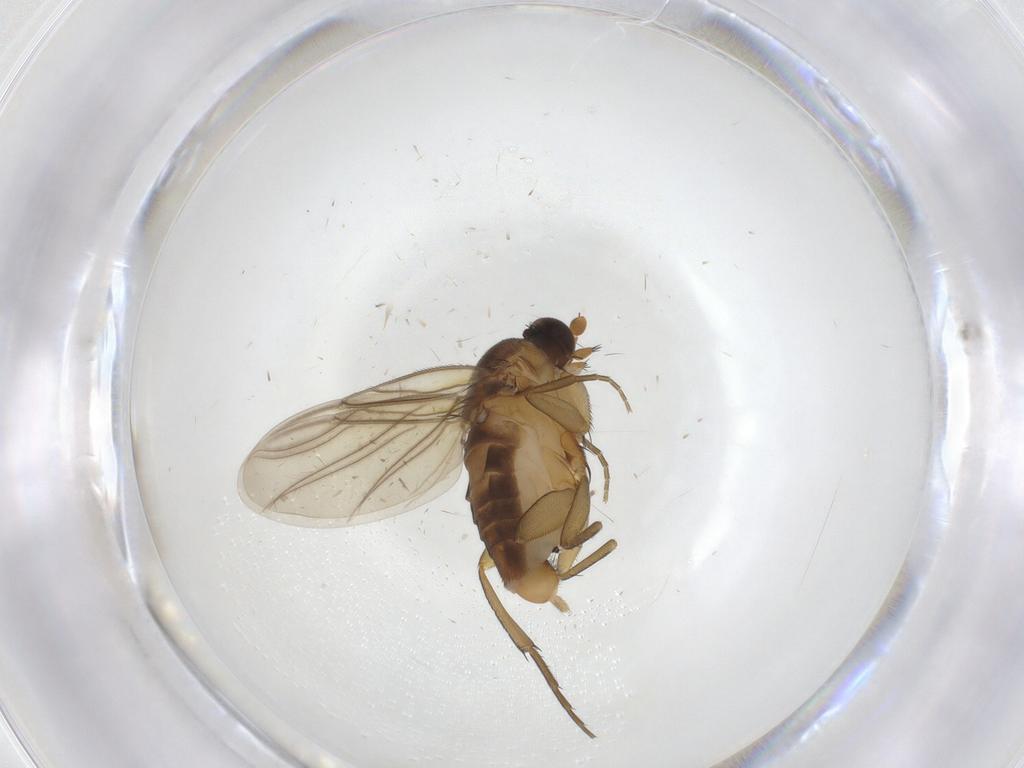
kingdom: Animalia
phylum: Arthropoda
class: Insecta
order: Diptera
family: Phoridae
